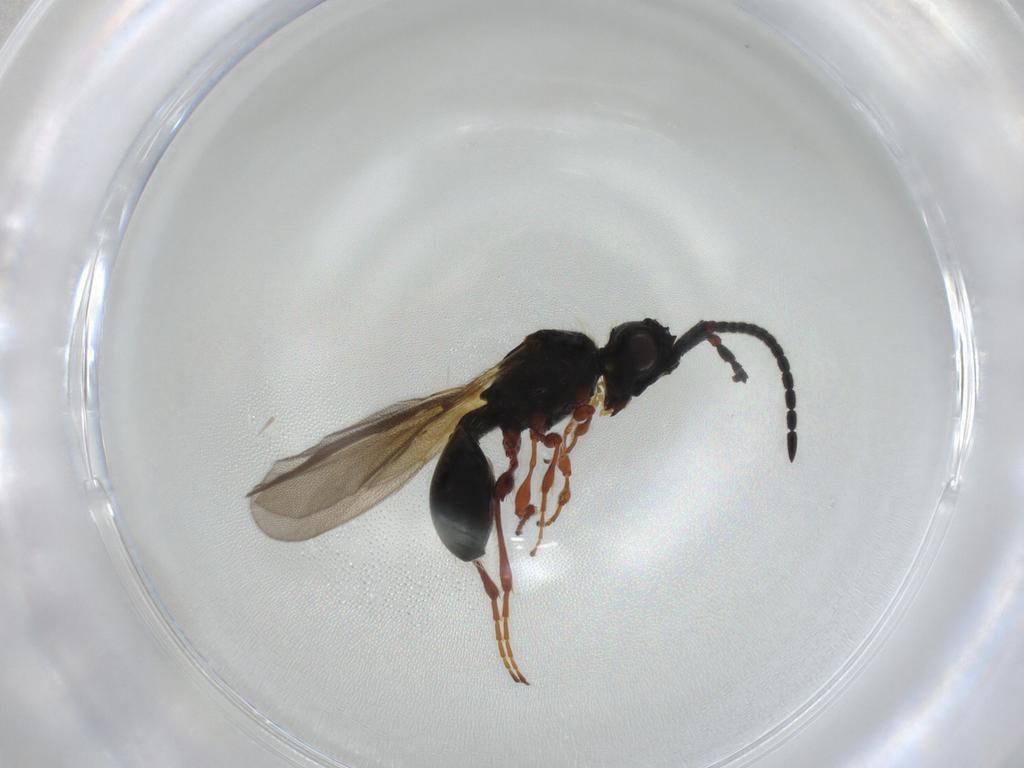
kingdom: Animalia
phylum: Arthropoda
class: Insecta
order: Hymenoptera
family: Diapriidae
